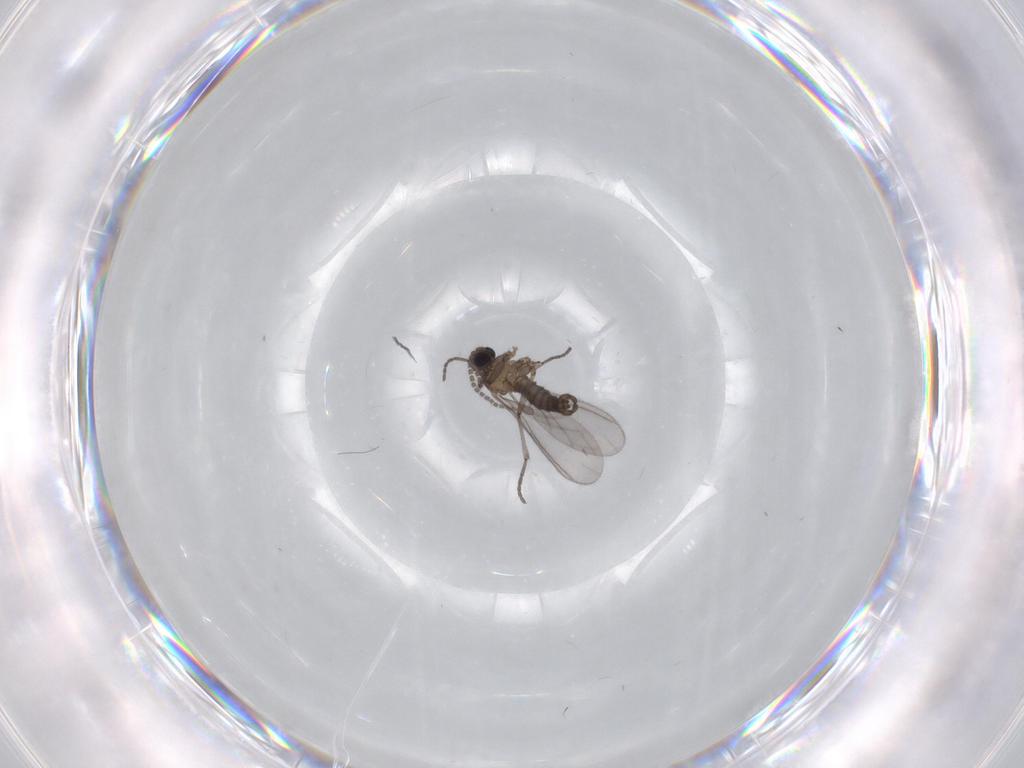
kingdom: Animalia
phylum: Arthropoda
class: Insecta
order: Diptera
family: Sciaridae
